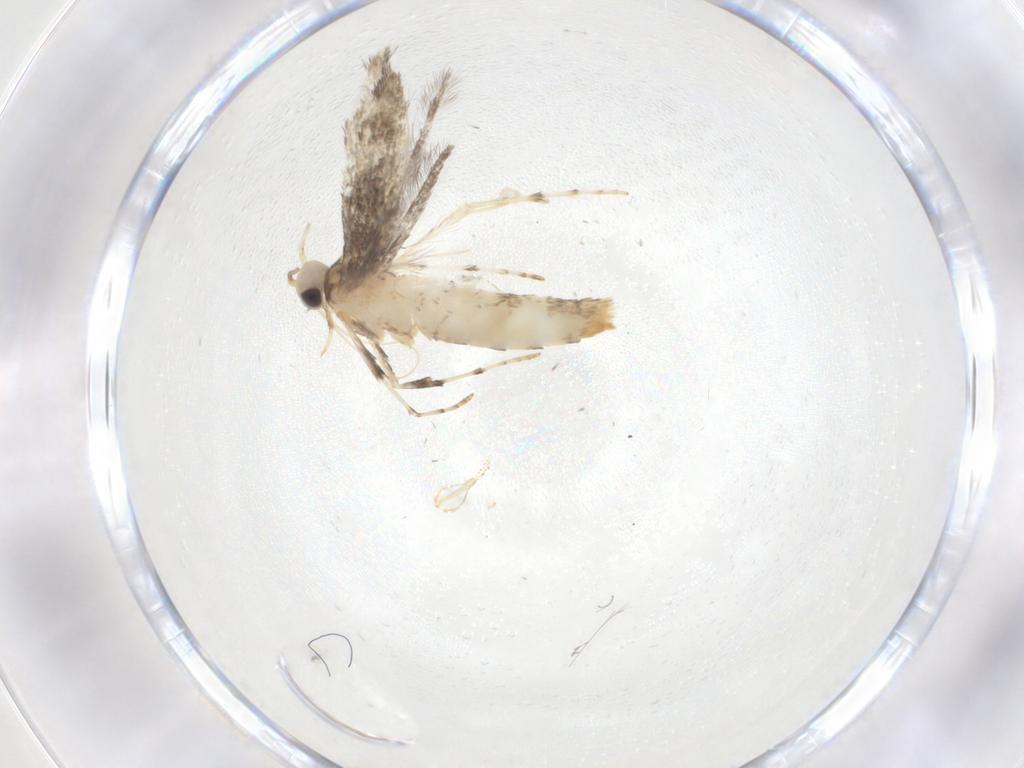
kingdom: Animalia
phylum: Arthropoda
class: Insecta
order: Lepidoptera
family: Gracillariidae
